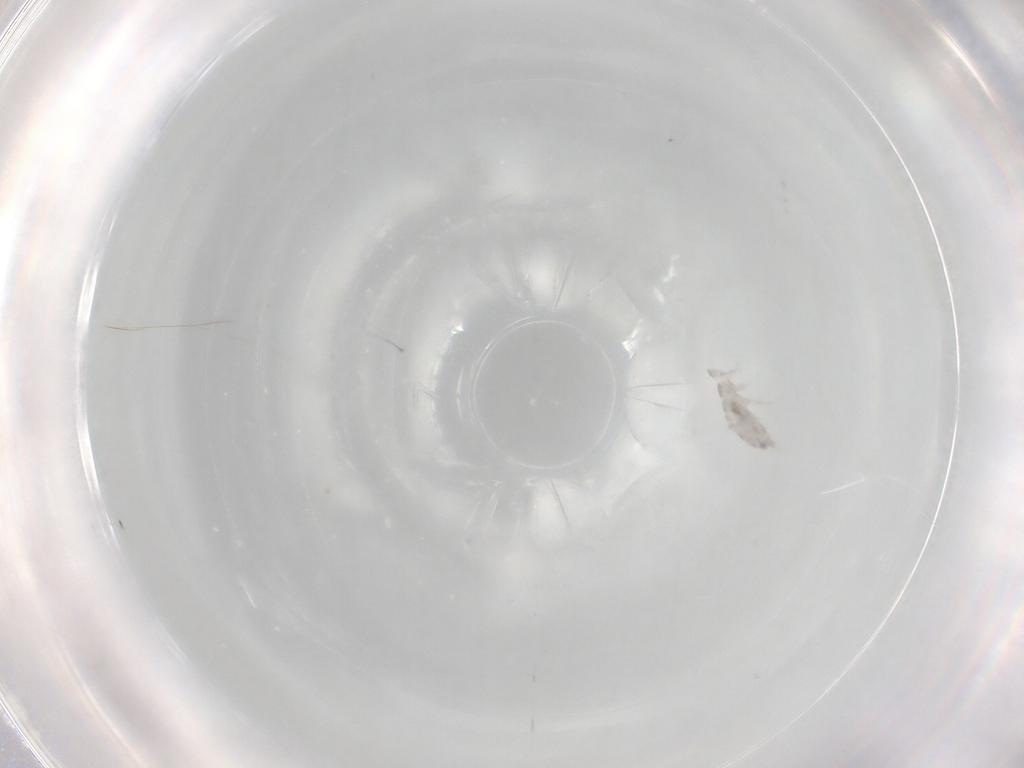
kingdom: Animalia
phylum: Arthropoda
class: Collembola
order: Entomobryomorpha
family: Isotomidae
